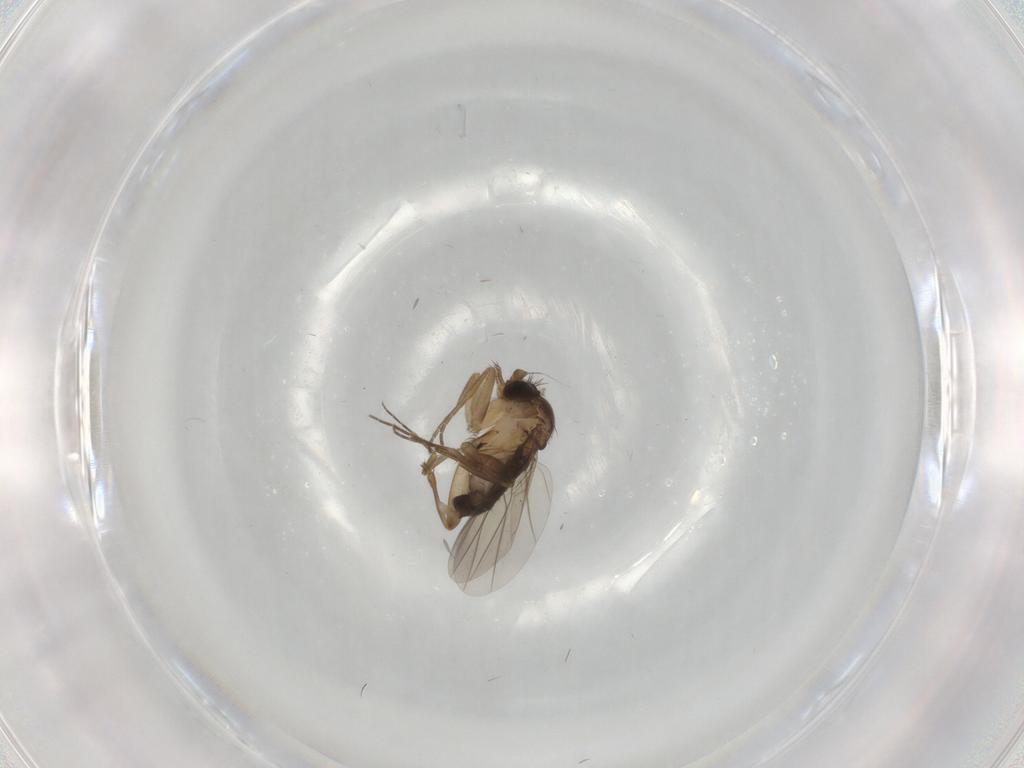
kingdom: Animalia
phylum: Arthropoda
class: Insecta
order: Diptera
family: Phoridae
